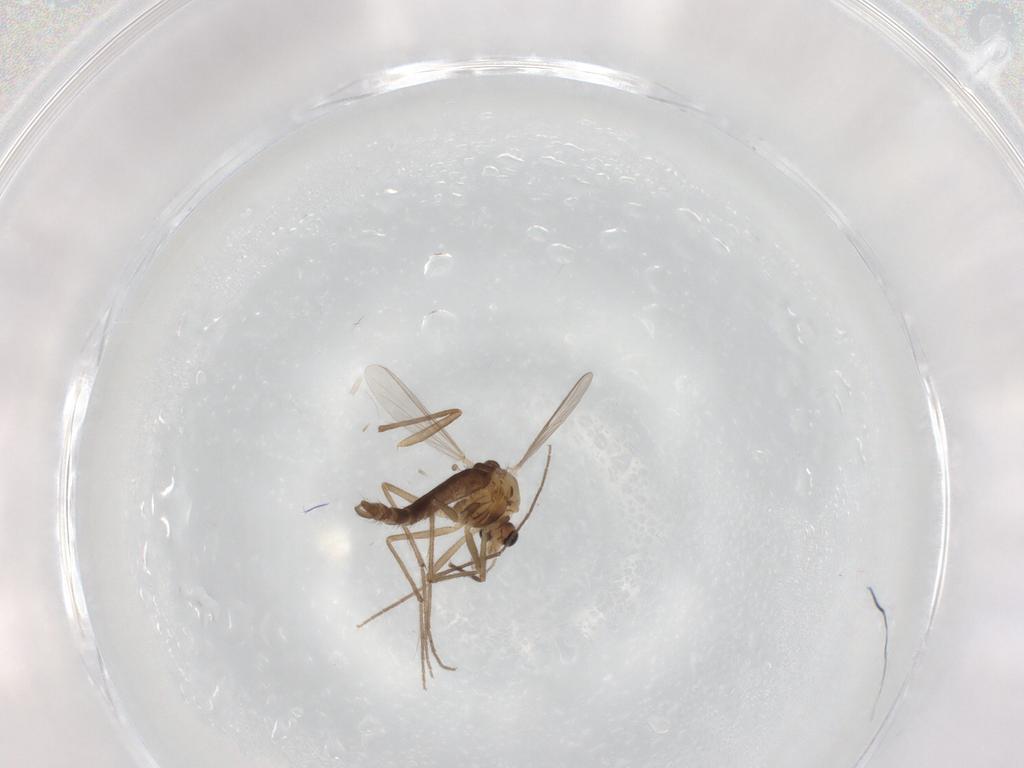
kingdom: Animalia
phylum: Arthropoda
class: Insecta
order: Diptera
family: Chironomidae
